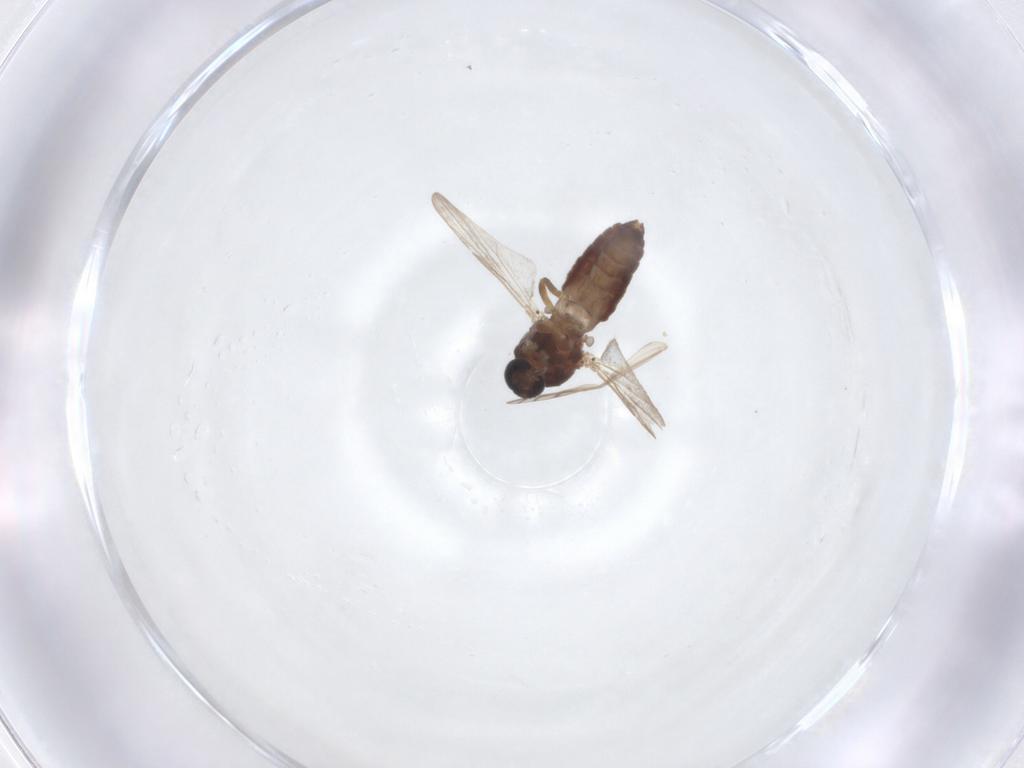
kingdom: Animalia
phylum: Arthropoda
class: Insecta
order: Diptera
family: Ceratopogonidae
